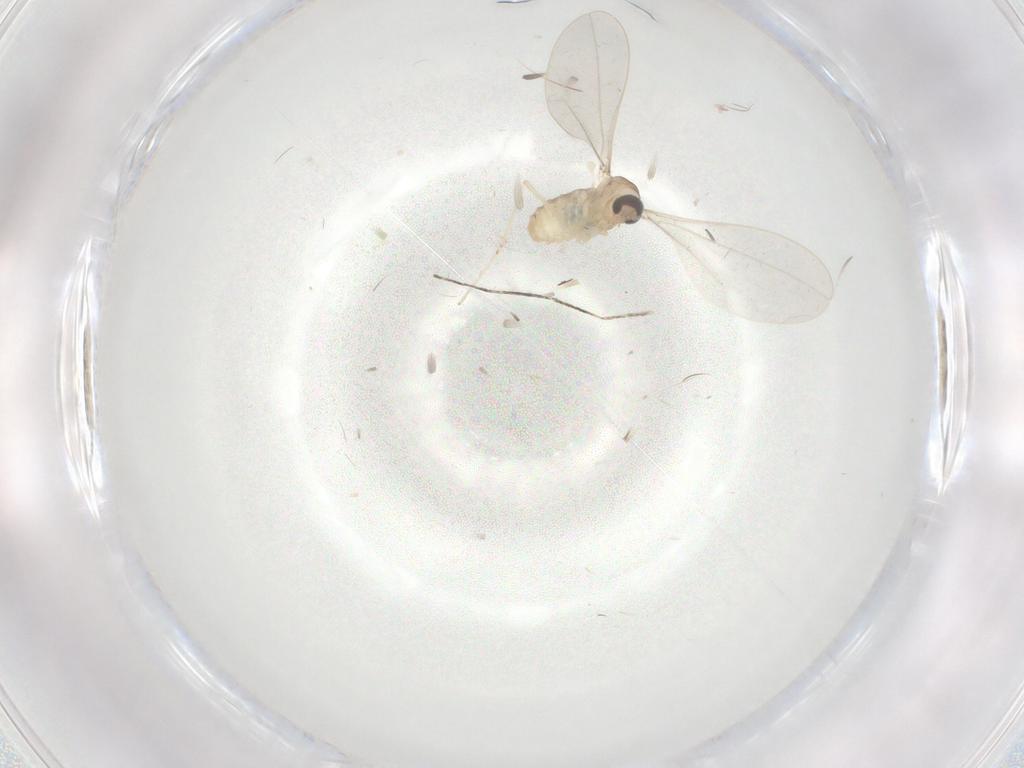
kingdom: Animalia
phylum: Arthropoda
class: Insecta
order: Diptera
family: Cecidomyiidae
